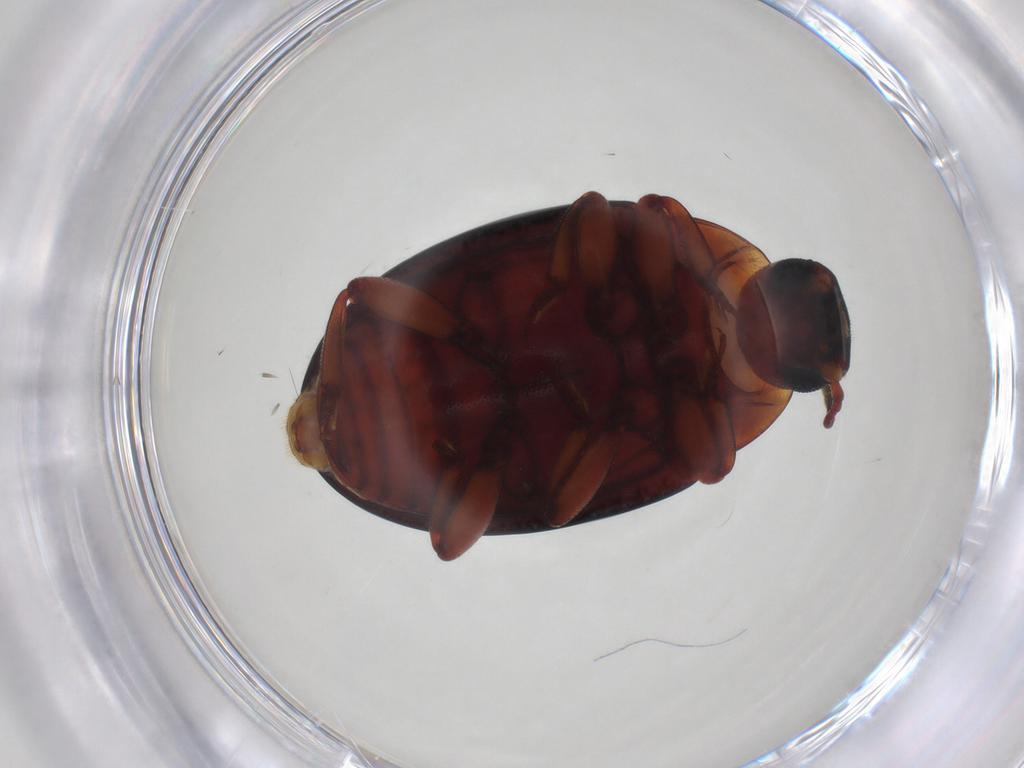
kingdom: Animalia
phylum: Arthropoda
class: Insecta
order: Coleoptera
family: Zopheridae
